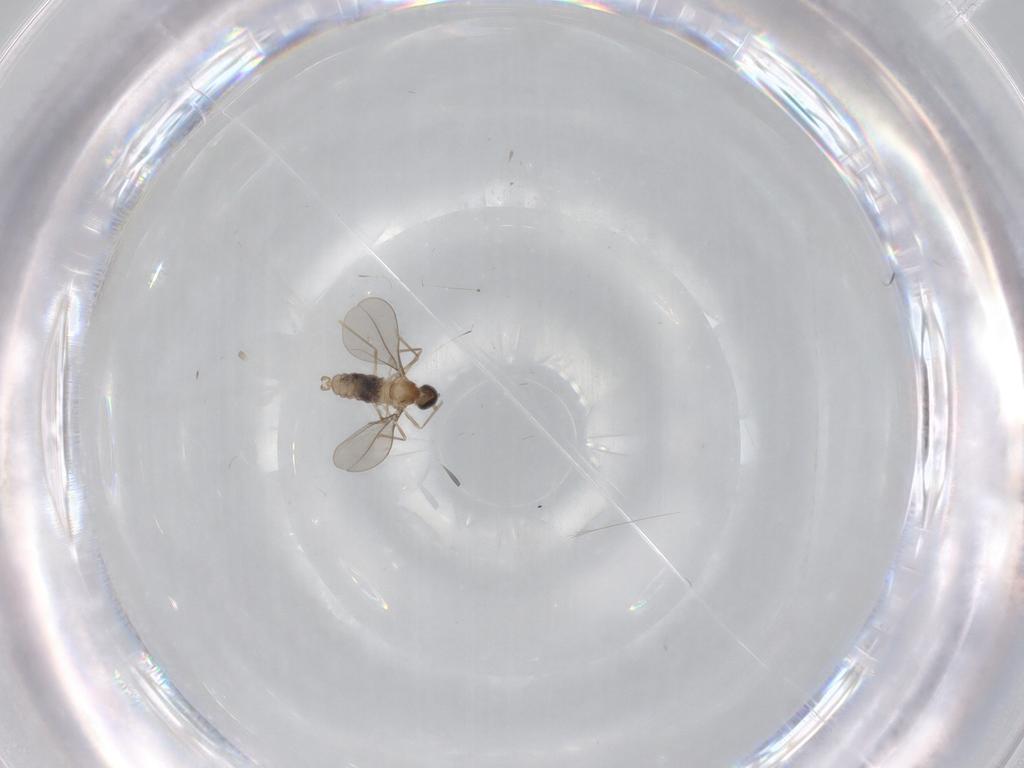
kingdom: Animalia
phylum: Arthropoda
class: Insecta
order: Diptera
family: Cecidomyiidae
